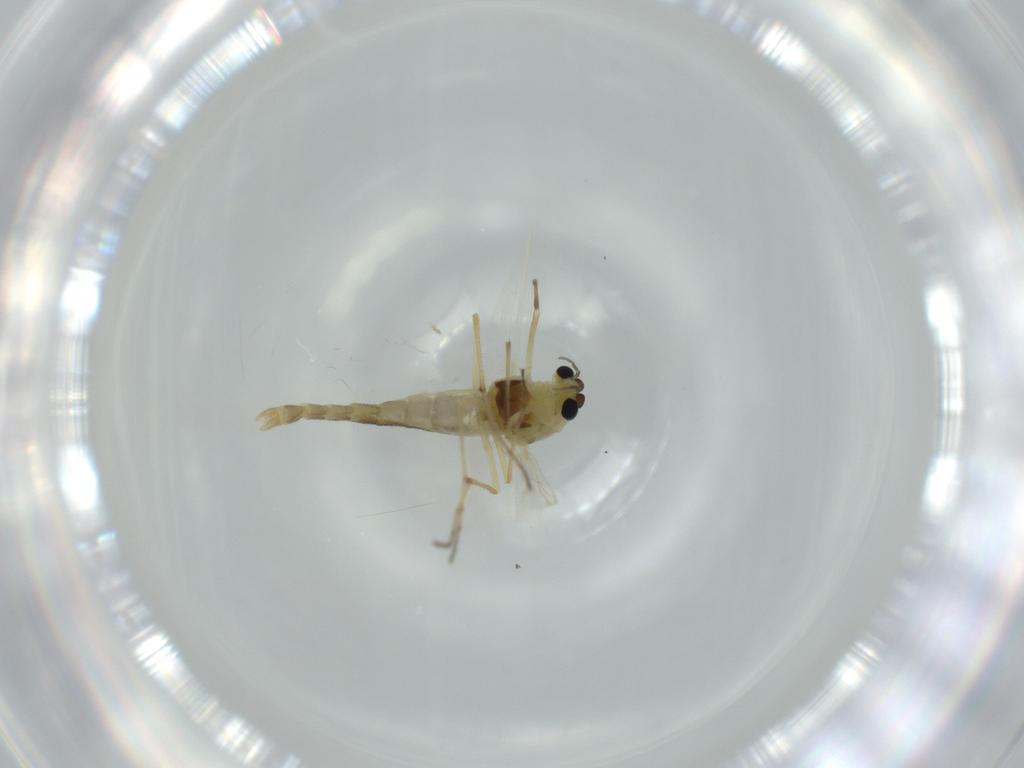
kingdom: Animalia
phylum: Arthropoda
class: Insecta
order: Diptera
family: Chironomidae
